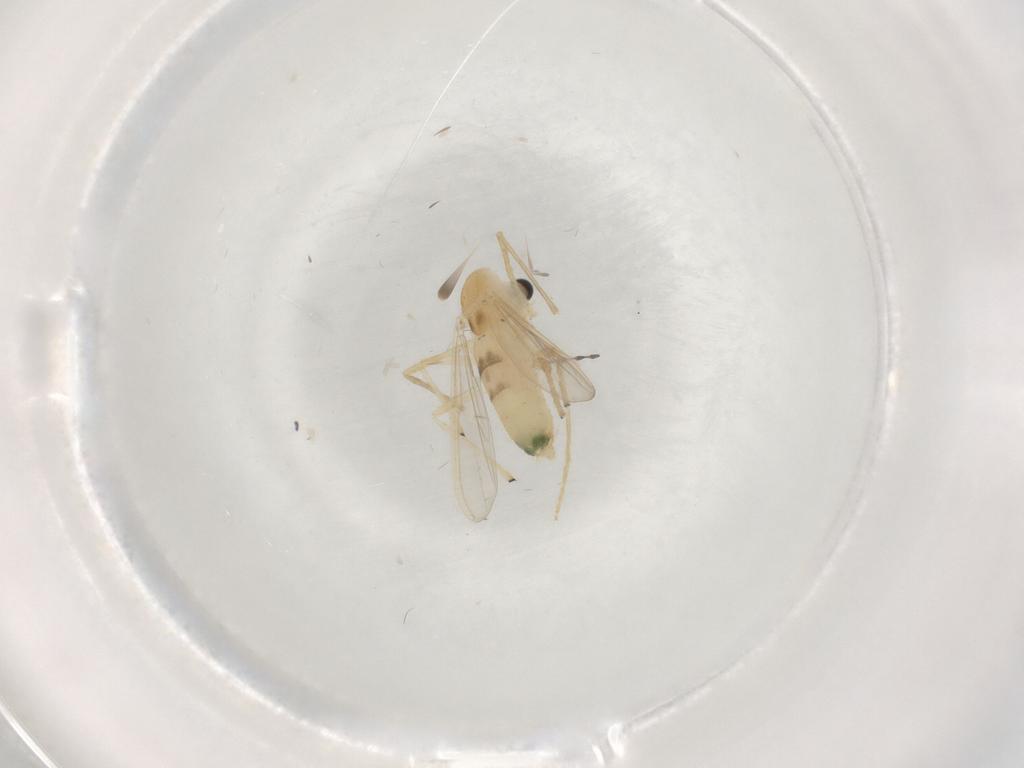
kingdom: Animalia
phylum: Arthropoda
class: Insecta
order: Diptera
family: Chironomidae
